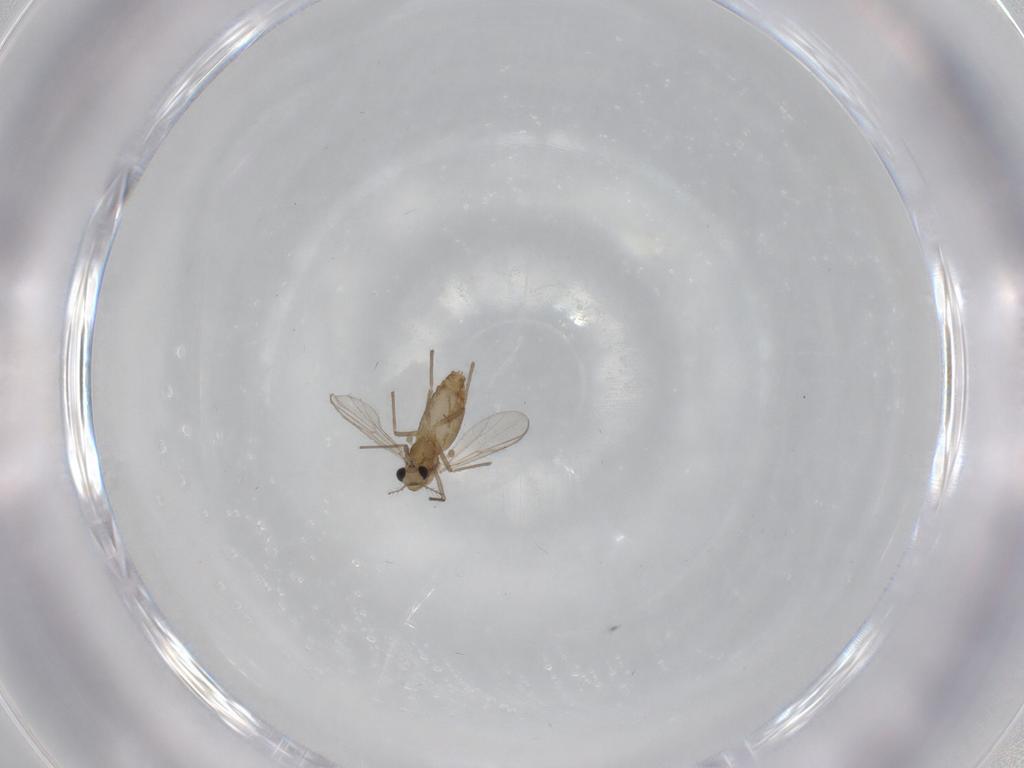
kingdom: Animalia
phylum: Arthropoda
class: Insecta
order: Diptera
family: Chironomidae
